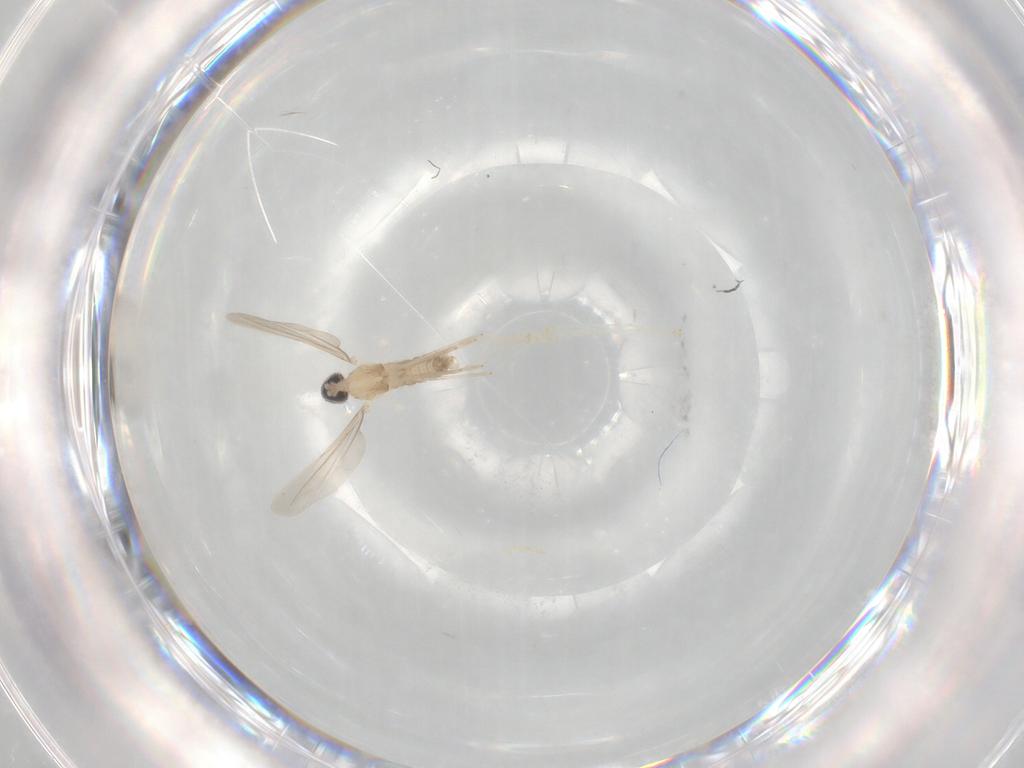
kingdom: Animalia
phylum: Arthropoda
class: Insecta
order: Diptera
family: Cecidomyiidae
